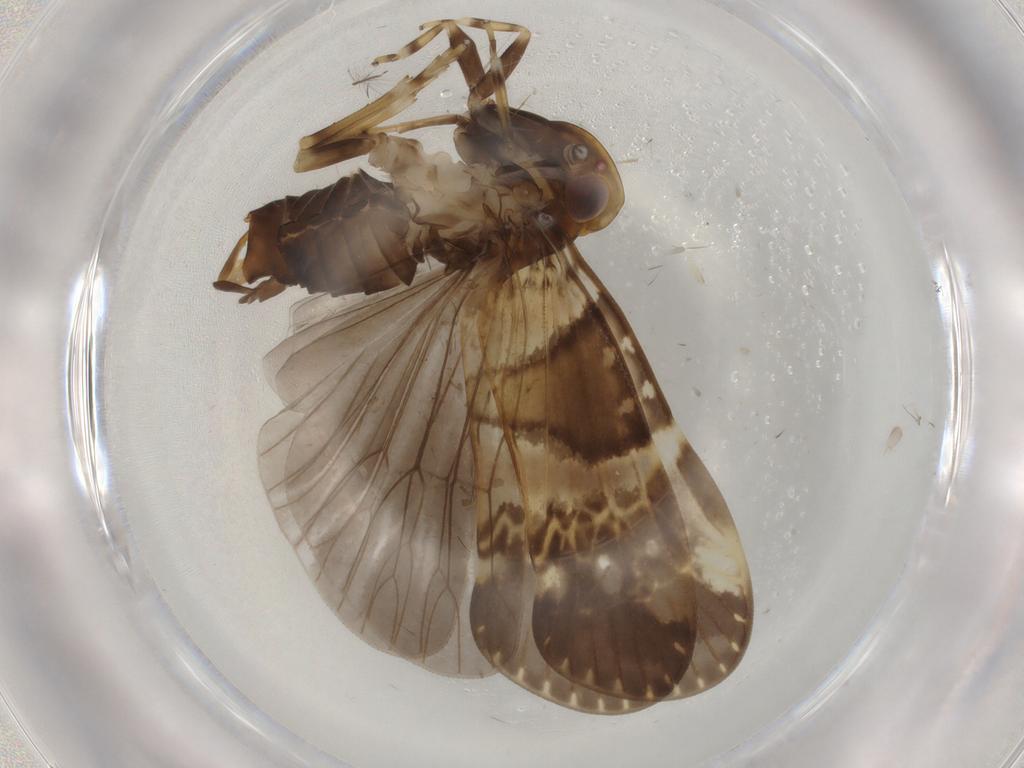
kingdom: Animalia
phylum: Arthropoda
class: Insecta
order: Hemiptera
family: Cixiidae
